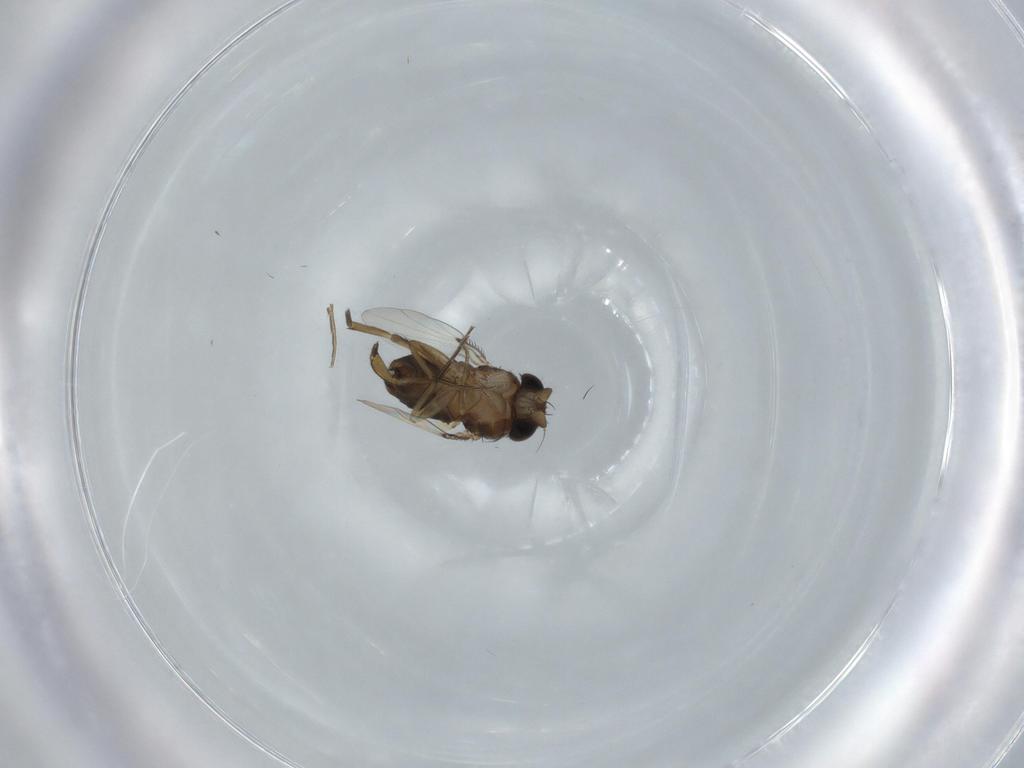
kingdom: Animalia
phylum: Arthropoda
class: Insecta
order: Diptera
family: Phoridae
